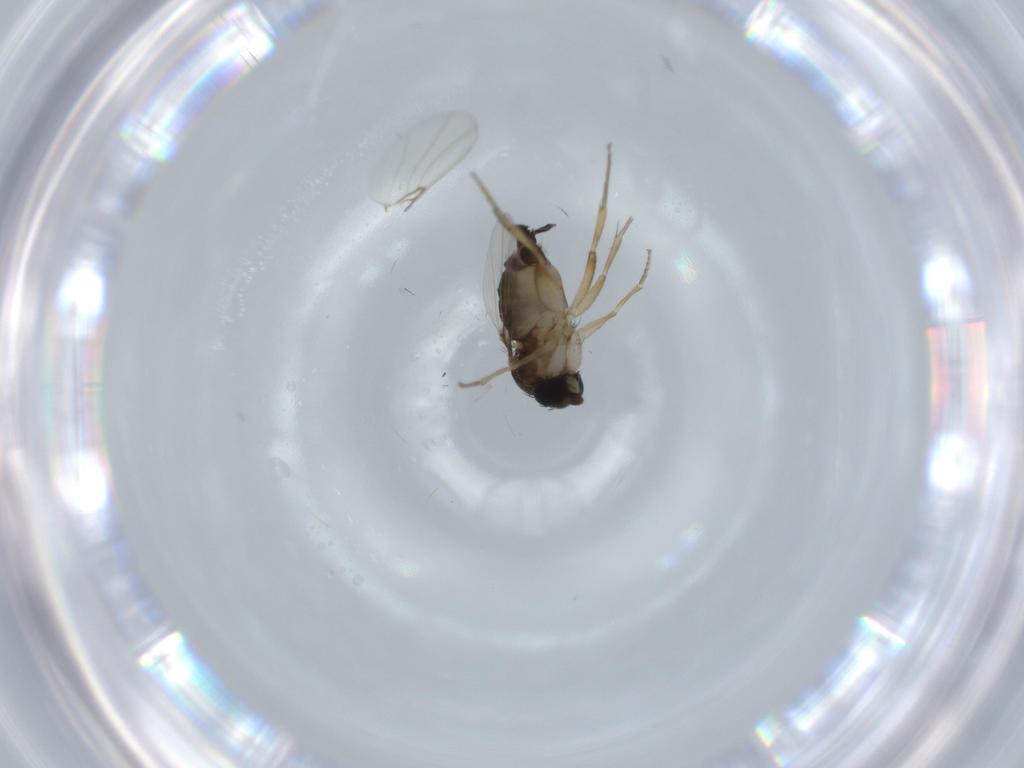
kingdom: Animalia
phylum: Arthropoda
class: Insecta
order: Diptera
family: Phoridae
